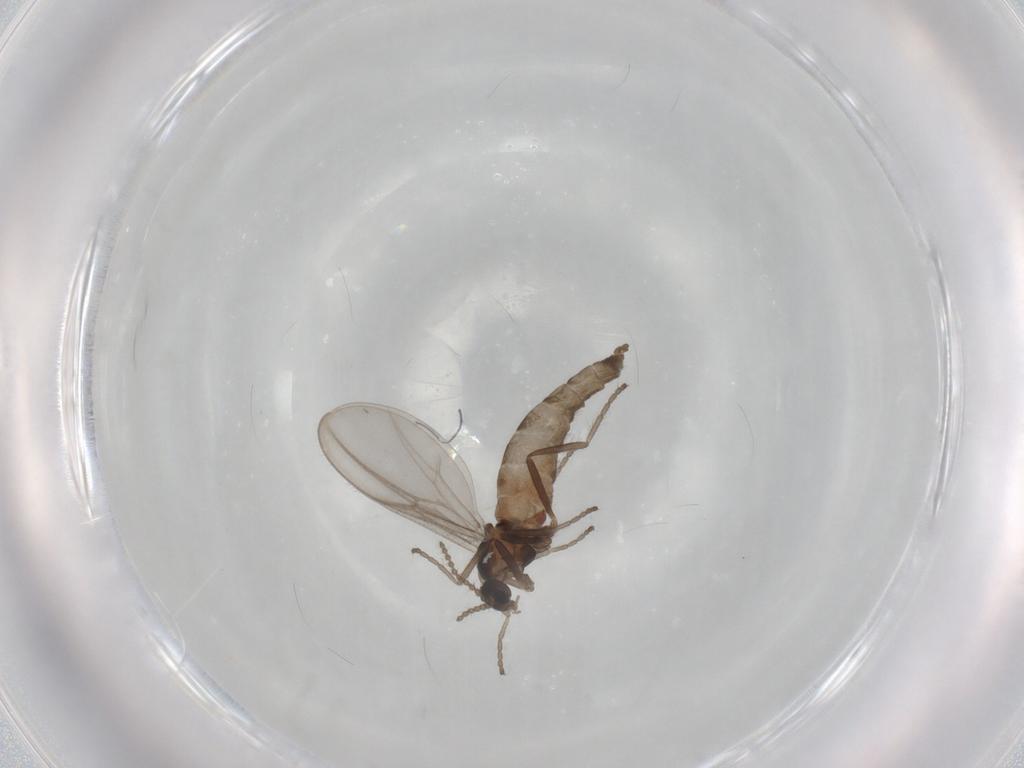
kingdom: Animalia
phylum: Arthropoda
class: Insecta
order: Diptera
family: Cecidomyiidae
